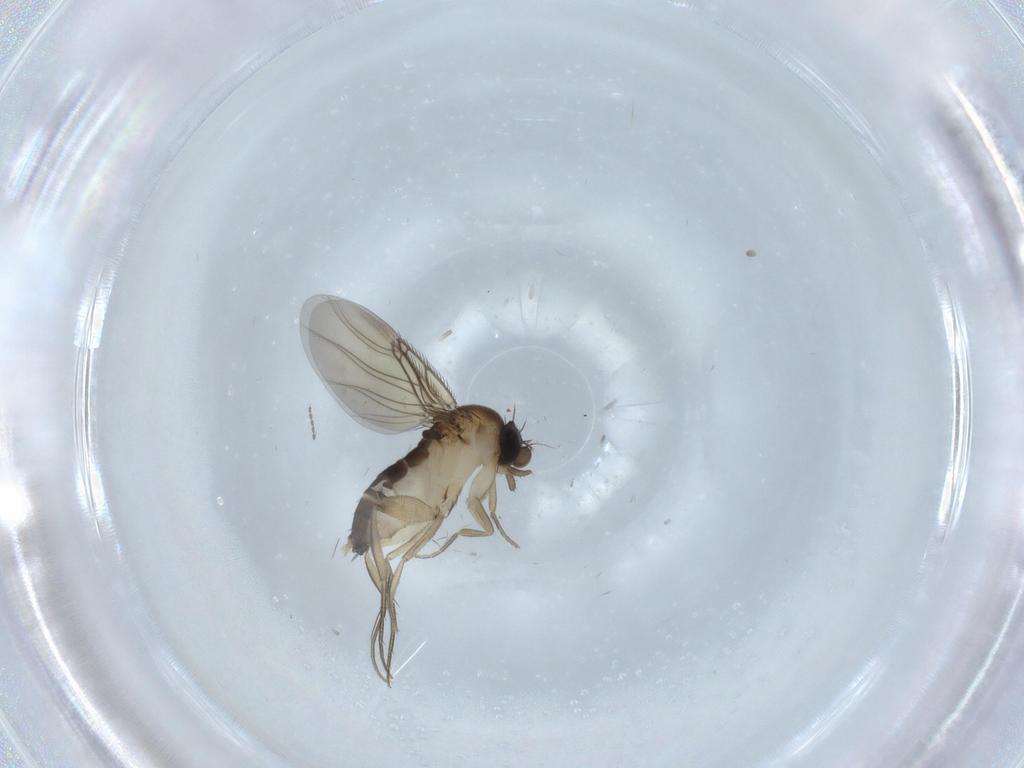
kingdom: Animalia
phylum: Arthropoda
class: Insecta
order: Diptera
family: Phoridae
